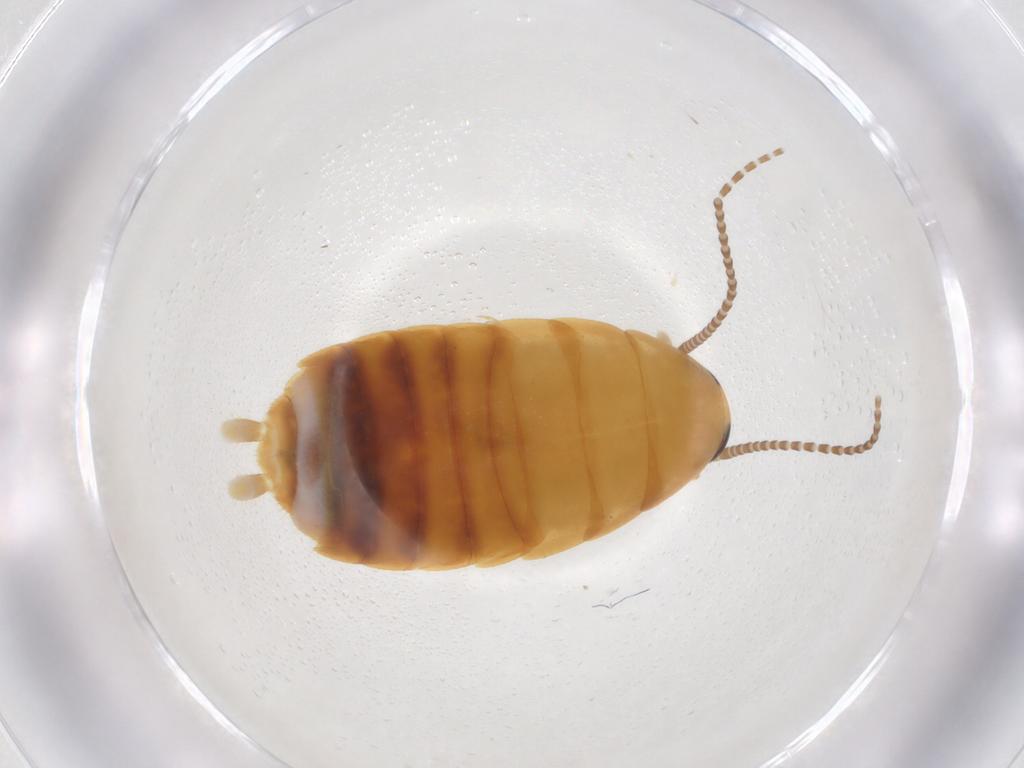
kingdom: Animalia
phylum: Arthropoda
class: Insecta
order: Blattodea
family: Blaberidae
